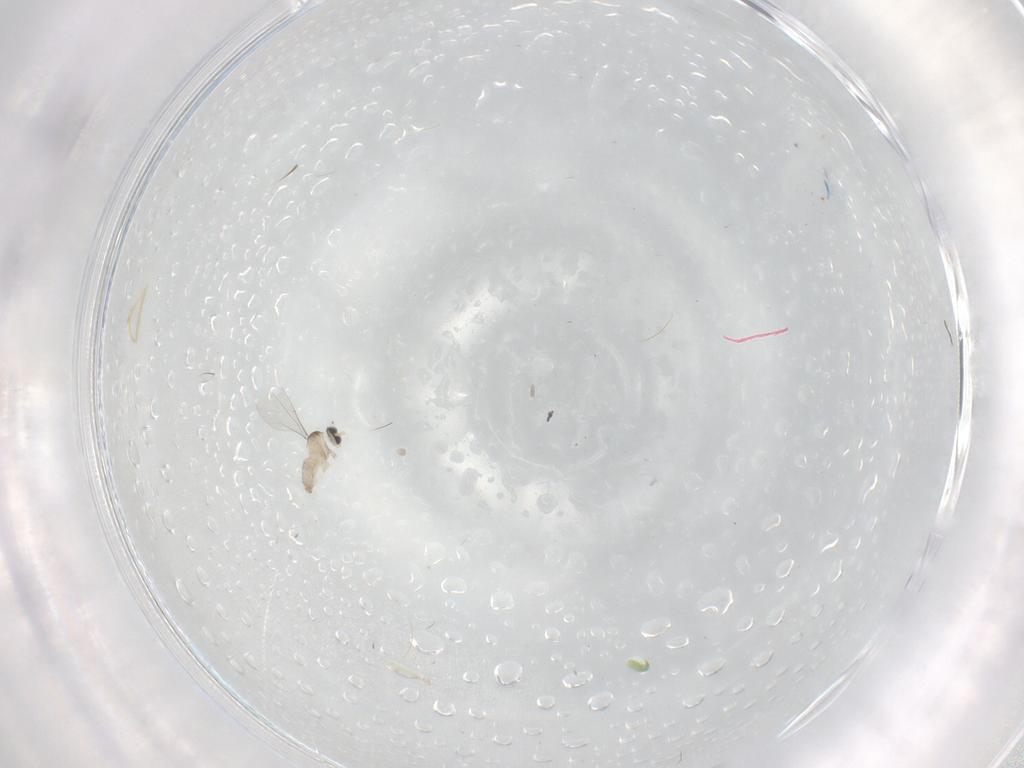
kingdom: Animalia
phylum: Arthropoda
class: Insecta
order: Diptera
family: Cecidomyiidae
